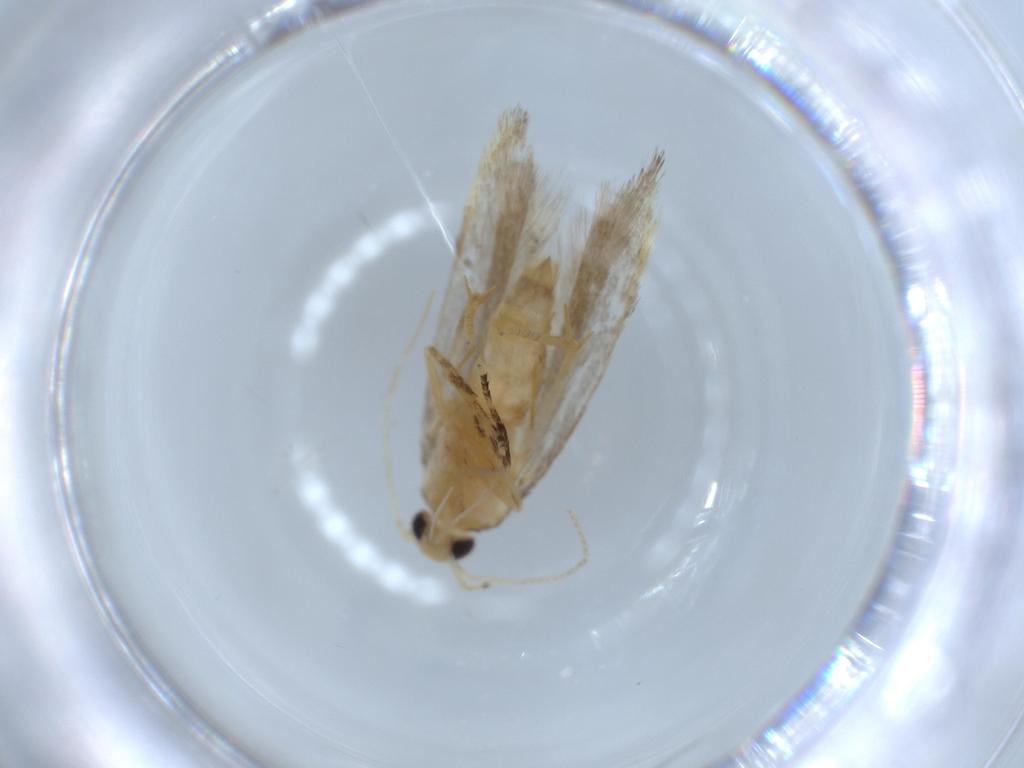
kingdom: Animalia
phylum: Arthropoda
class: Insecta
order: Lepidoptera
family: Autostichidae
